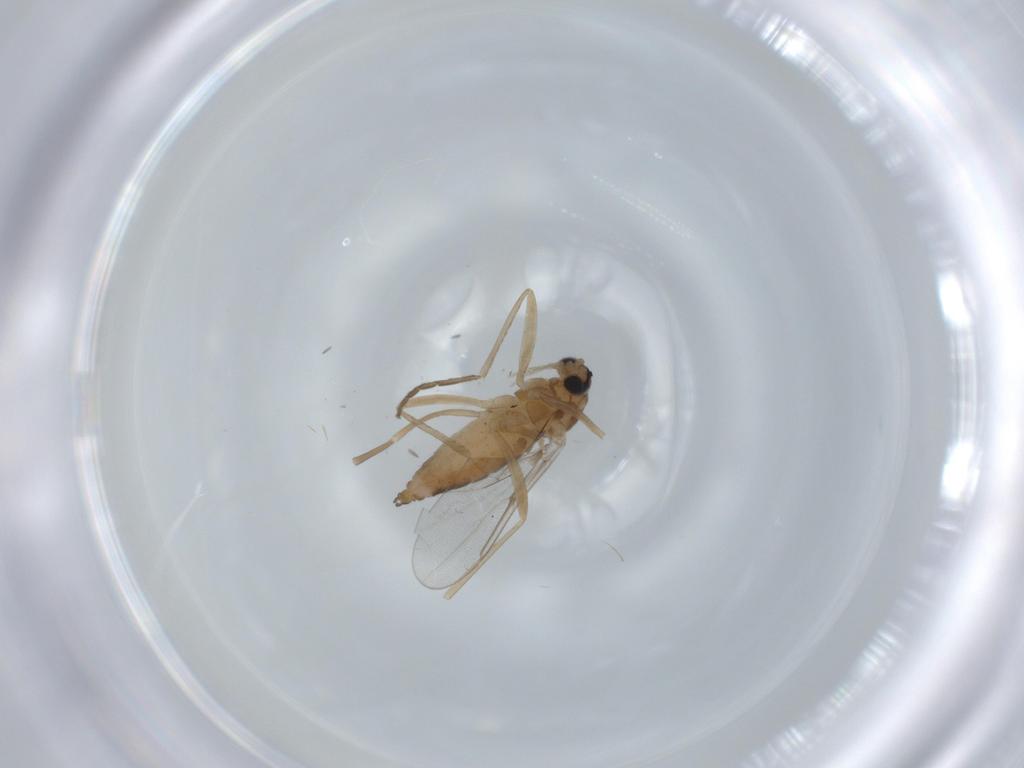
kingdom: Animalia
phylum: Arthropoda
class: Insecta
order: Diptera
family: Cecidomyiidae
